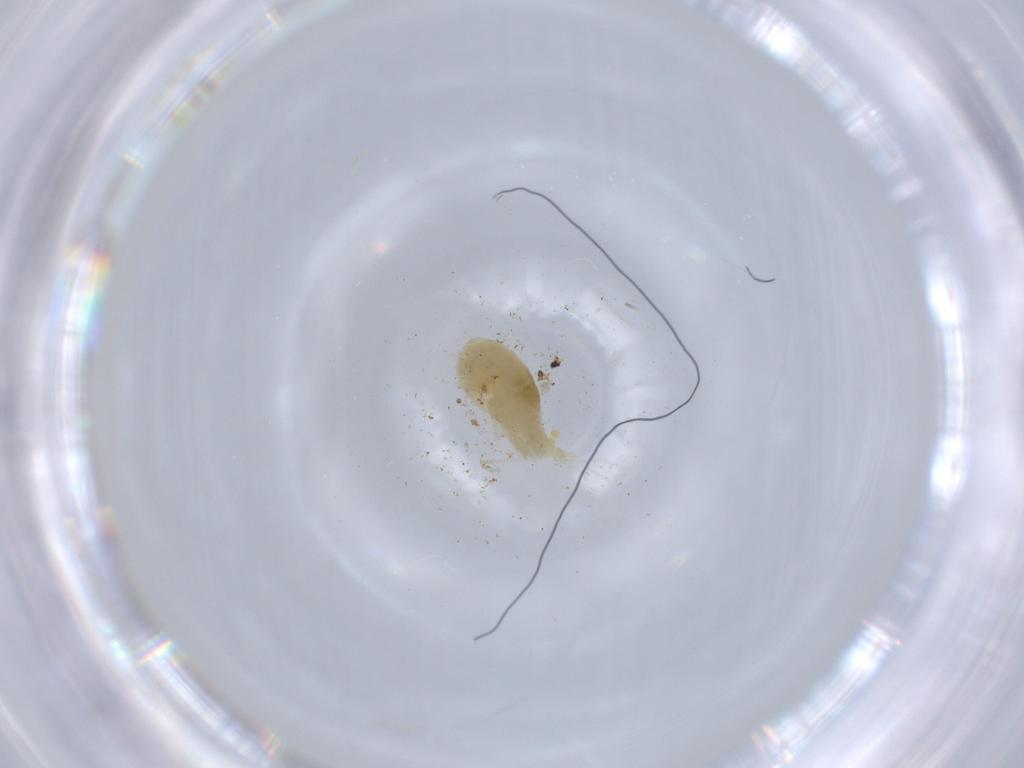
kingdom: Animalia
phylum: Arthropoda
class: Copepoda
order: Cyclopoida
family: Cyclopidae
